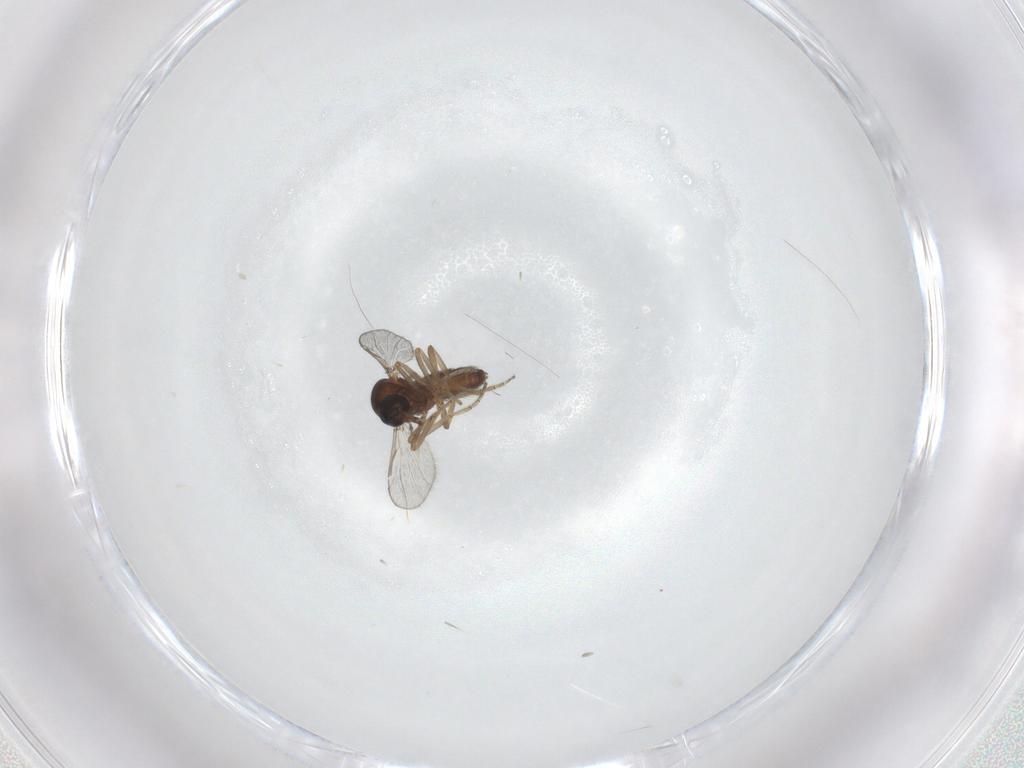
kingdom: Animalia
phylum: Arthropoda
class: Insecta
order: Diptera
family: Ceratopogonidae
